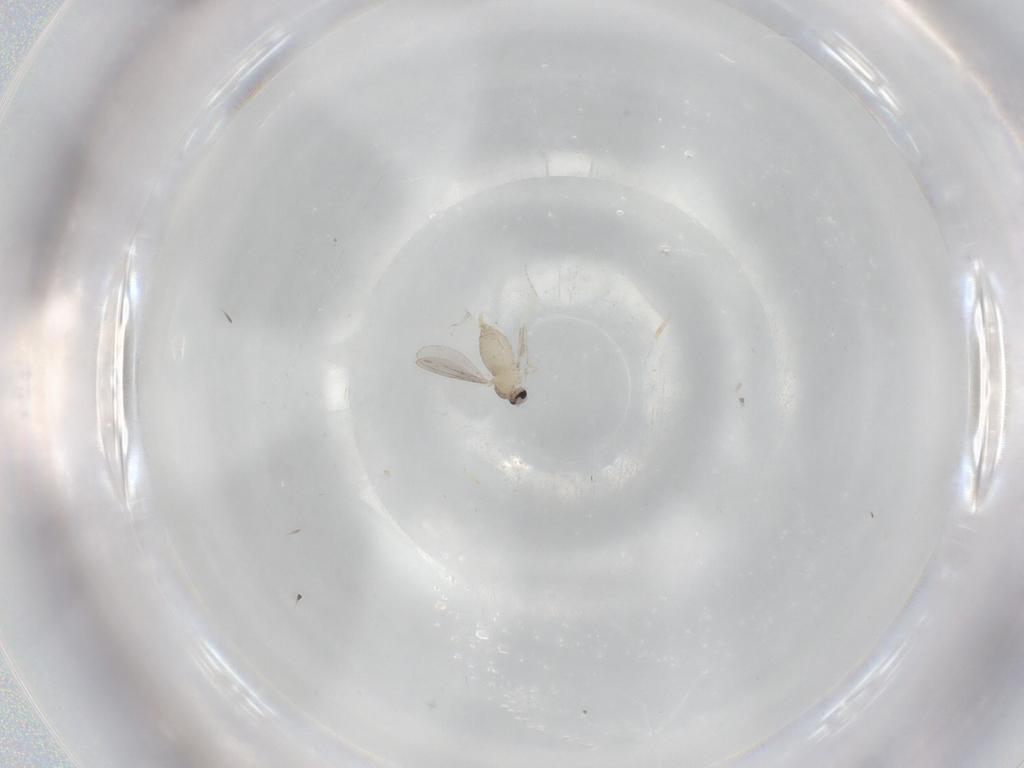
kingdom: Animalia
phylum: Arthropoda
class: Insecta
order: Diptera
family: Cecidomyiidae
